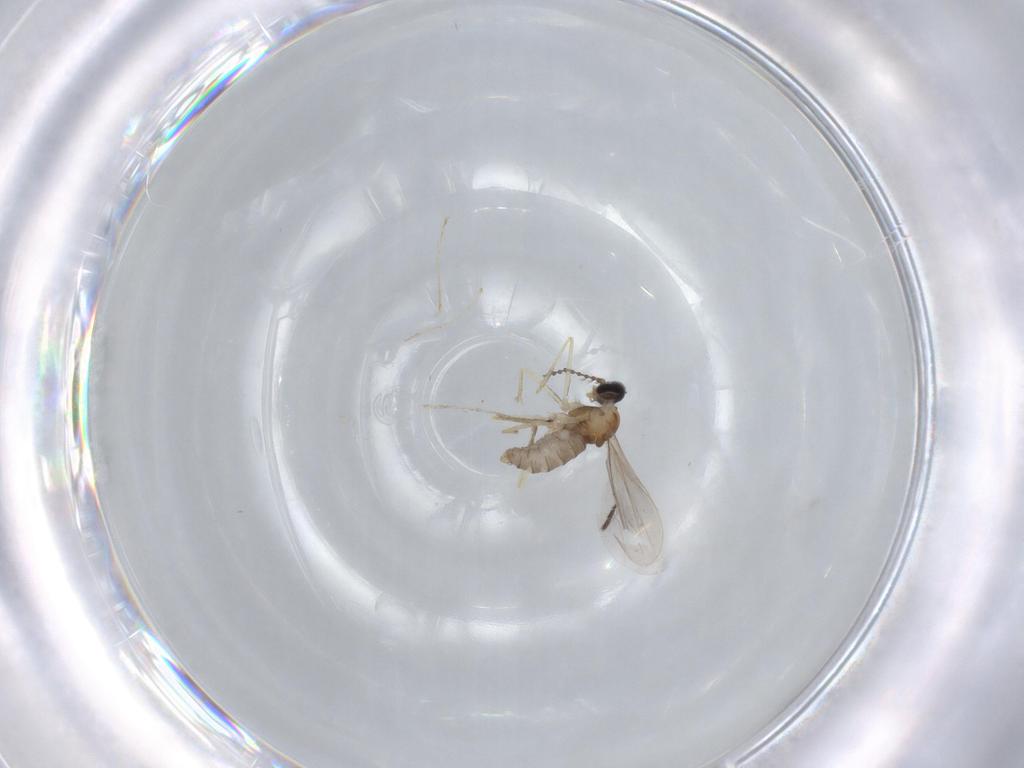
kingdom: Animalia
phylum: Arthropoda
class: Insecta
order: Diptera
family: Cecidomyiidae
